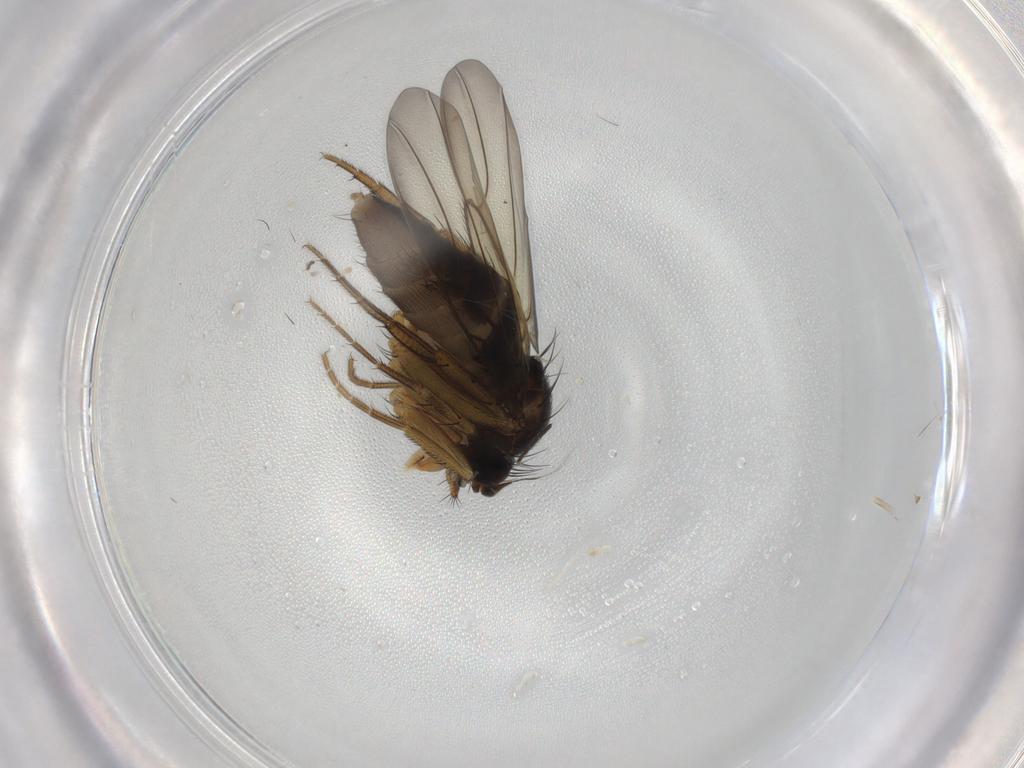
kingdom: Animalia
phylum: Arthropoda
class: Insecta
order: Diptera
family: Phoridae
